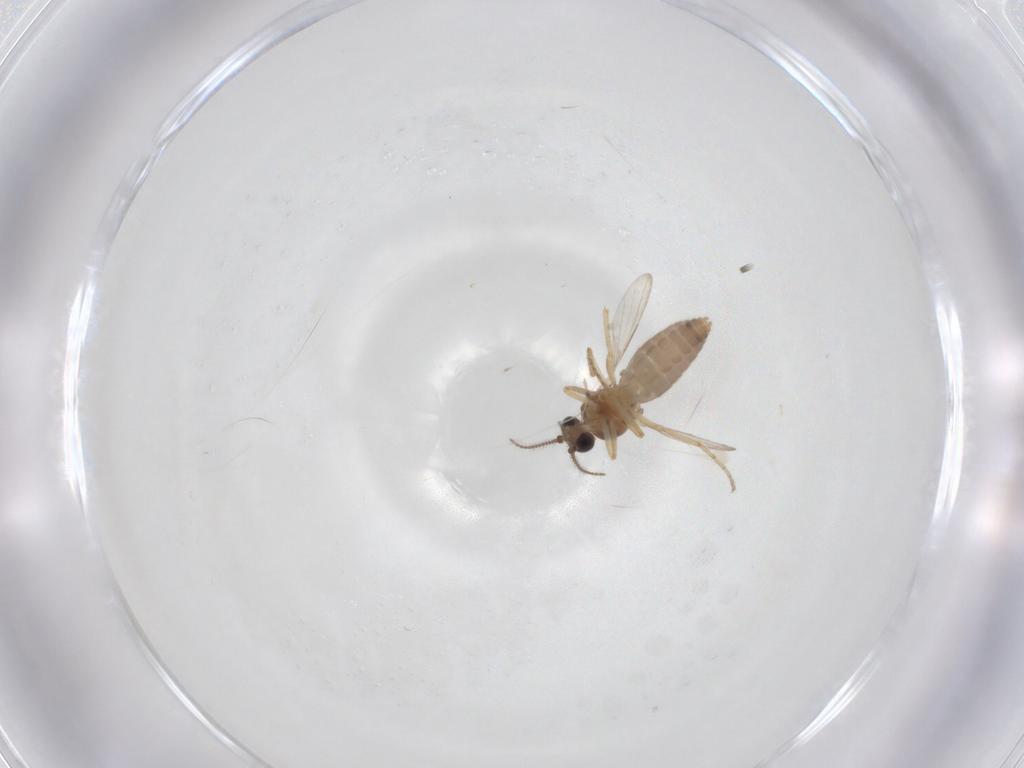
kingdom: Animalia
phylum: Arthropoda
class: Insecta
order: Diptera
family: Ceratopogonidae
